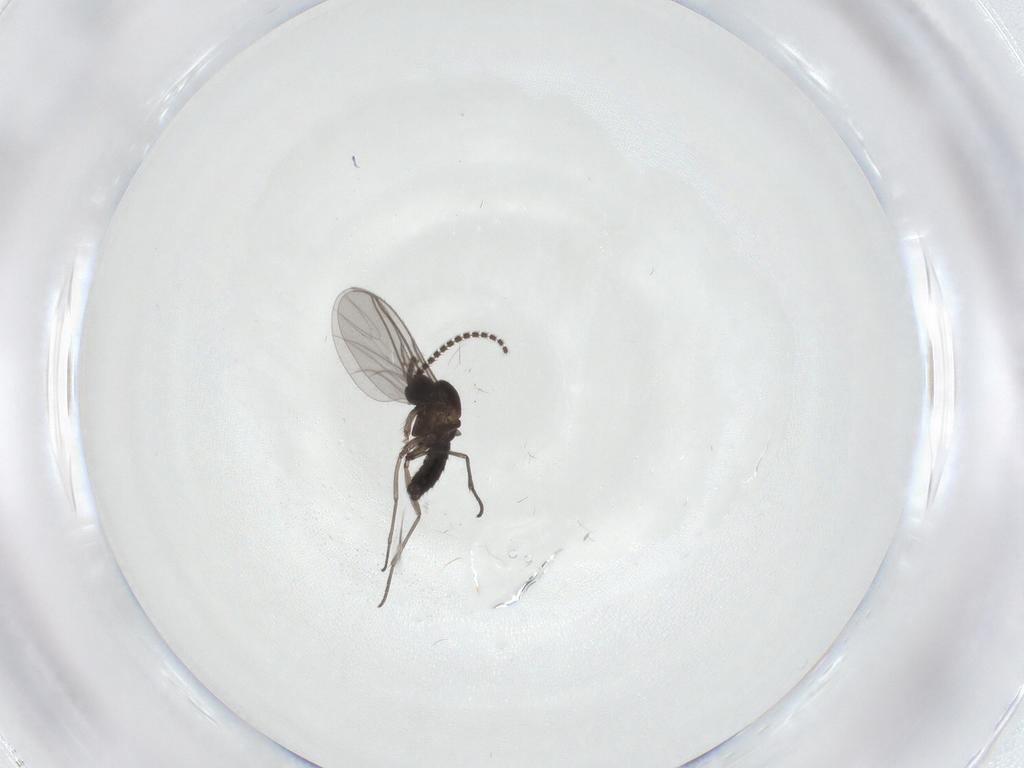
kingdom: Animalia
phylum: Arthropoda
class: Insecta
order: Diptera
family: Sciaridae
